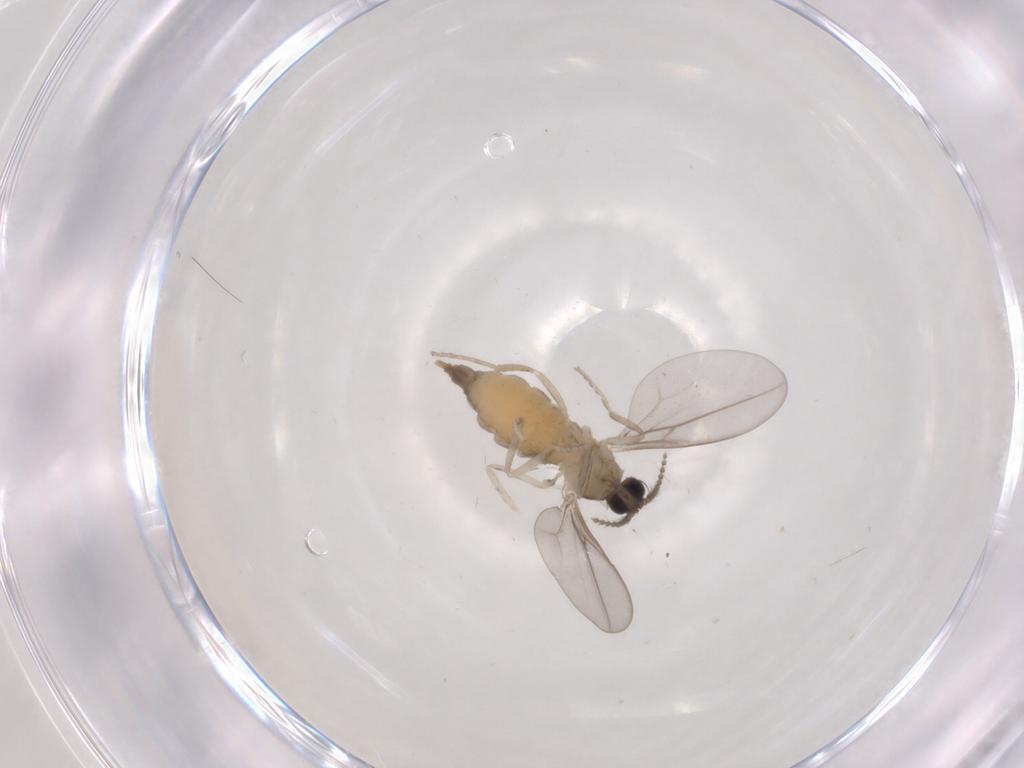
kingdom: Animalia
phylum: Arthropoda
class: Insecta
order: Diptera
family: Cecidomyiidae
